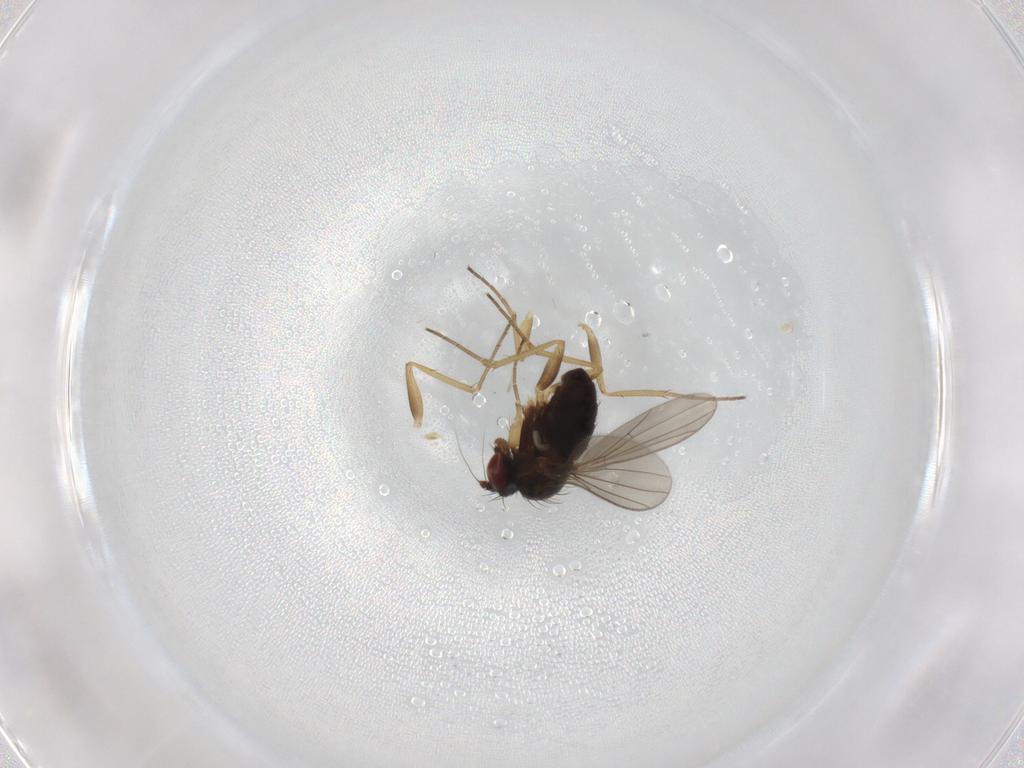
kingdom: Animalia
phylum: Arthropoda
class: Insecta
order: Diptera
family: Dolichopodidae
